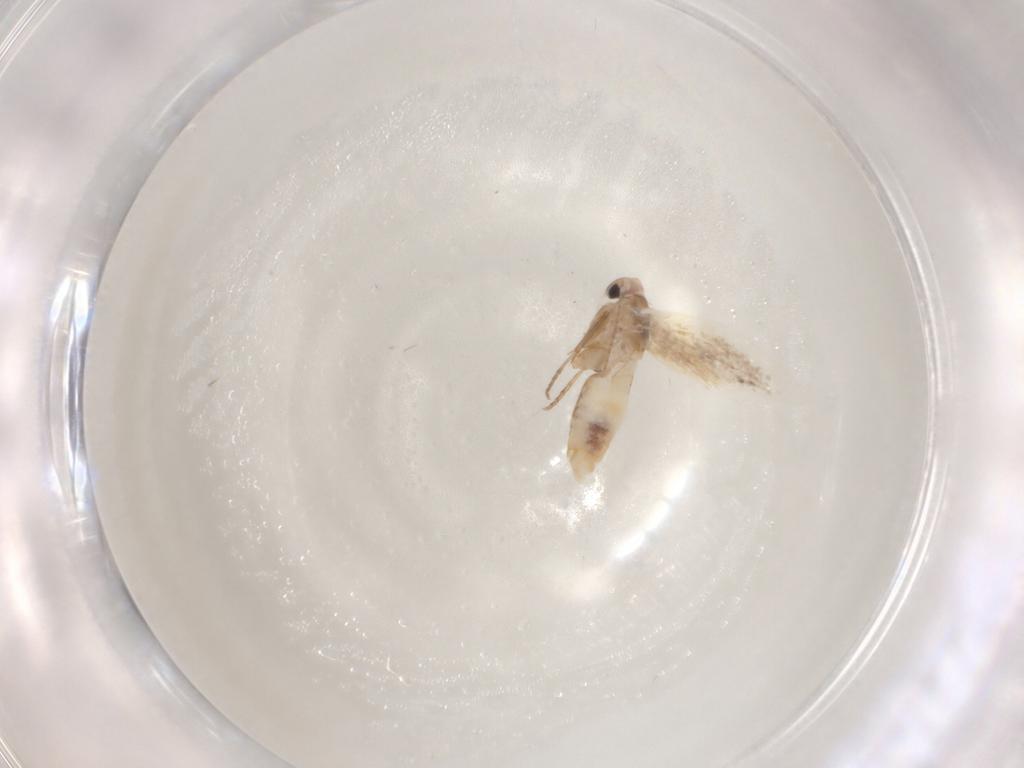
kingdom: Animalia
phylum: Arthropoda
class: Insecta
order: Lepidoptera
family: Bucculatricidae
